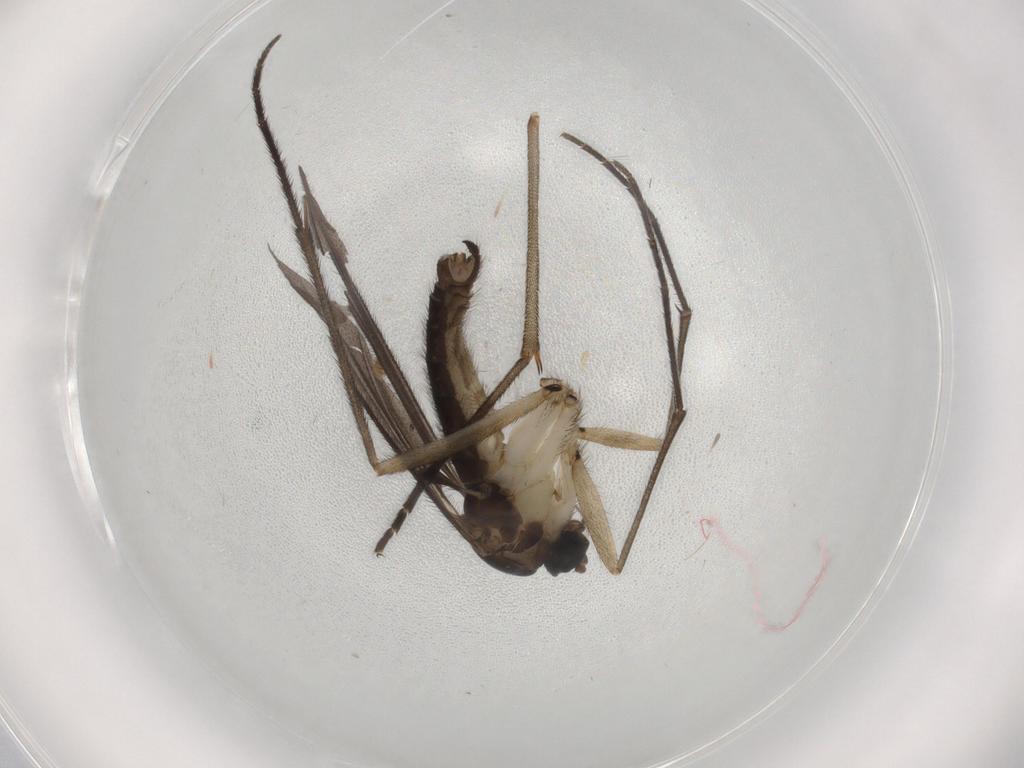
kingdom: Animalia
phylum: Arthropoda
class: Insecta
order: Diptera
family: Sciaridae
